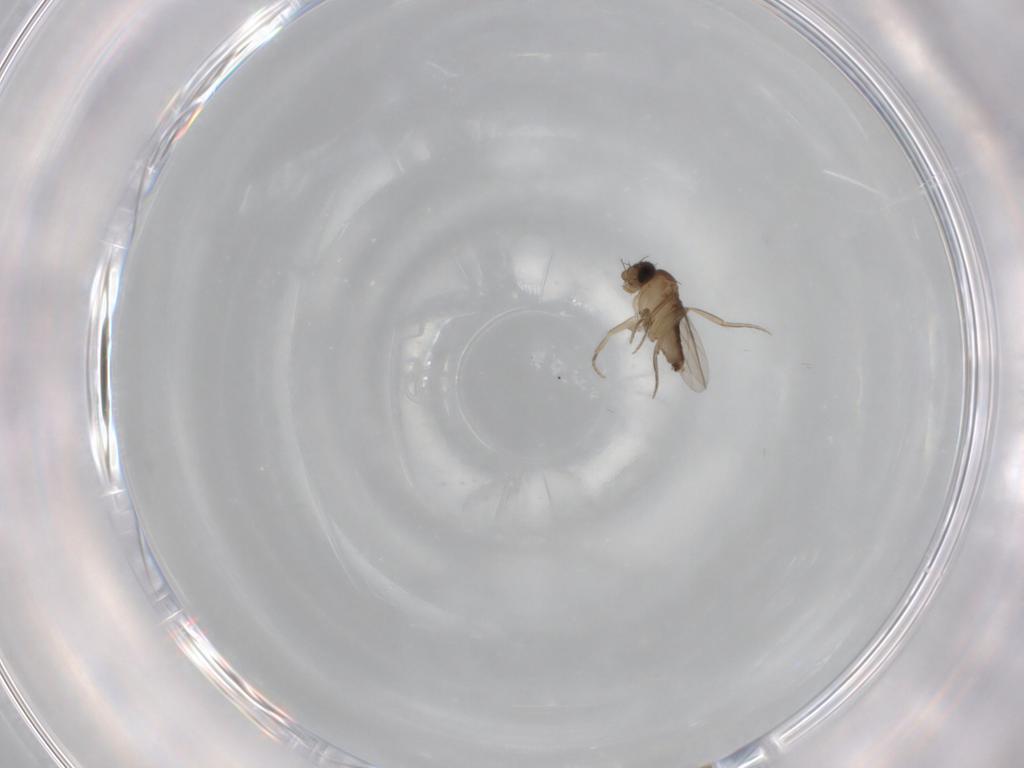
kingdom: Animalia
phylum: Arthropoda
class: Insecta
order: Diptera
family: Phoridae
